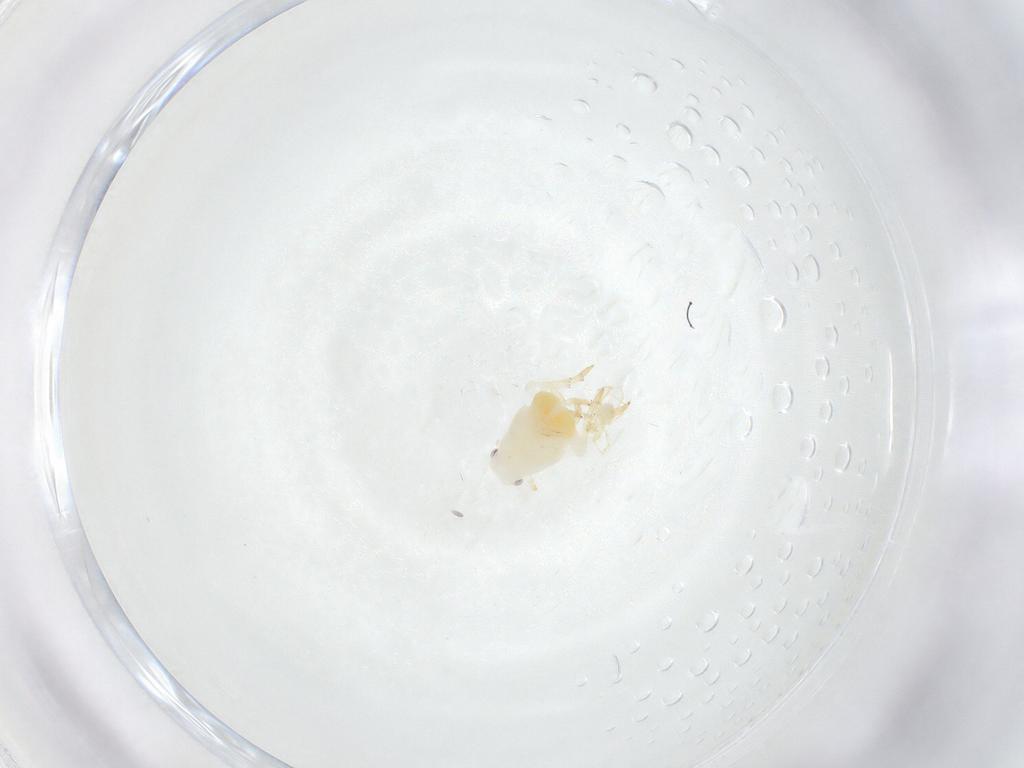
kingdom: Animalia
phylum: Arthropoda
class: Insecta
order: Hemiptera
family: Flatidae
